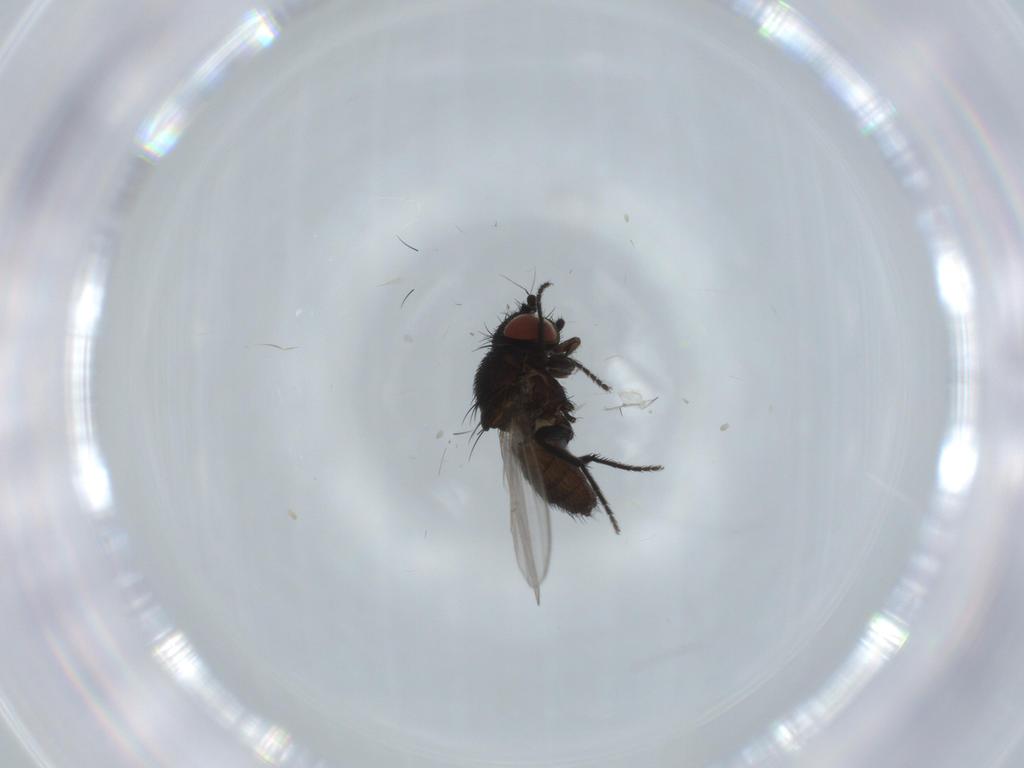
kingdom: Animalia
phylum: Arthropoda
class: Insecta
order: Diptera
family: Milichiidae
